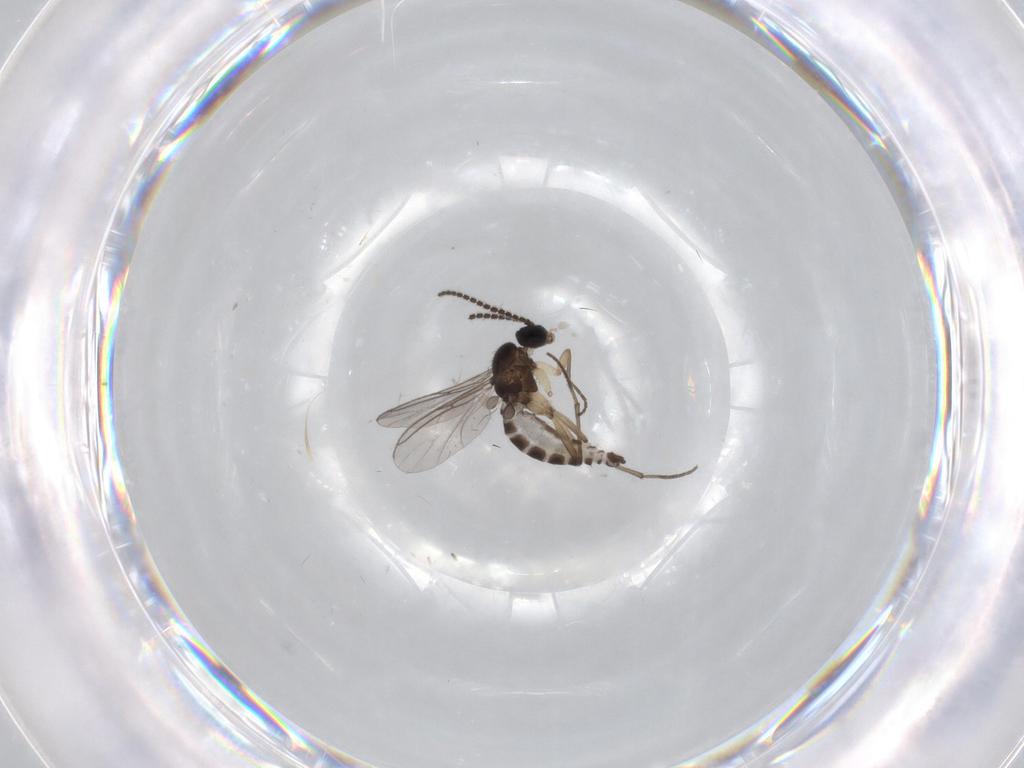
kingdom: Animalia
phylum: Arthropoda
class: Insecta
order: Diptera
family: Sciaridae
